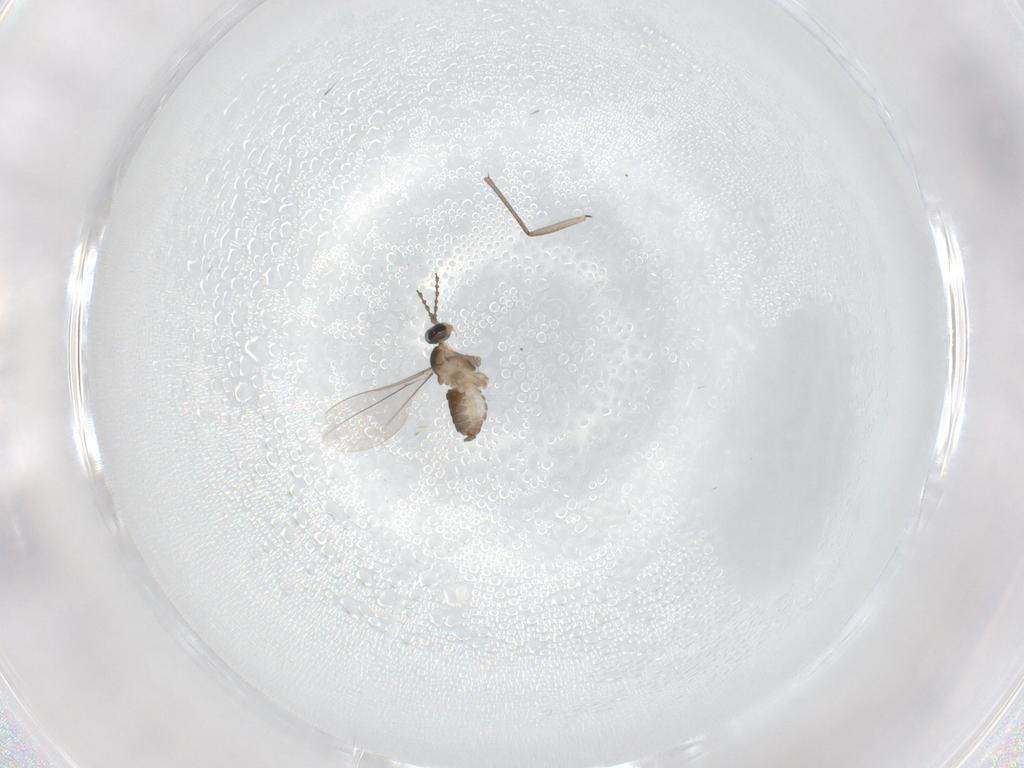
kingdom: Animalia
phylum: Arthropoda
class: Insecta
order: Diptera
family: Cecidomyiidae
